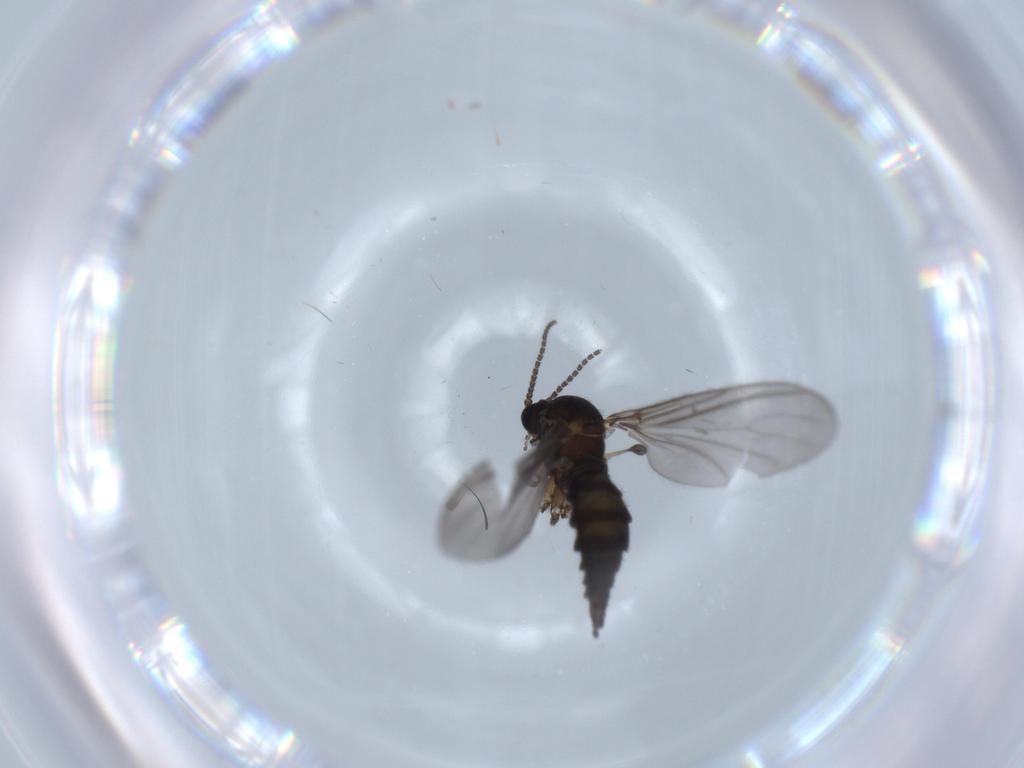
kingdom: Animalia
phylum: Arthropoda
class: Insecta
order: Diptera
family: Sciaridae
